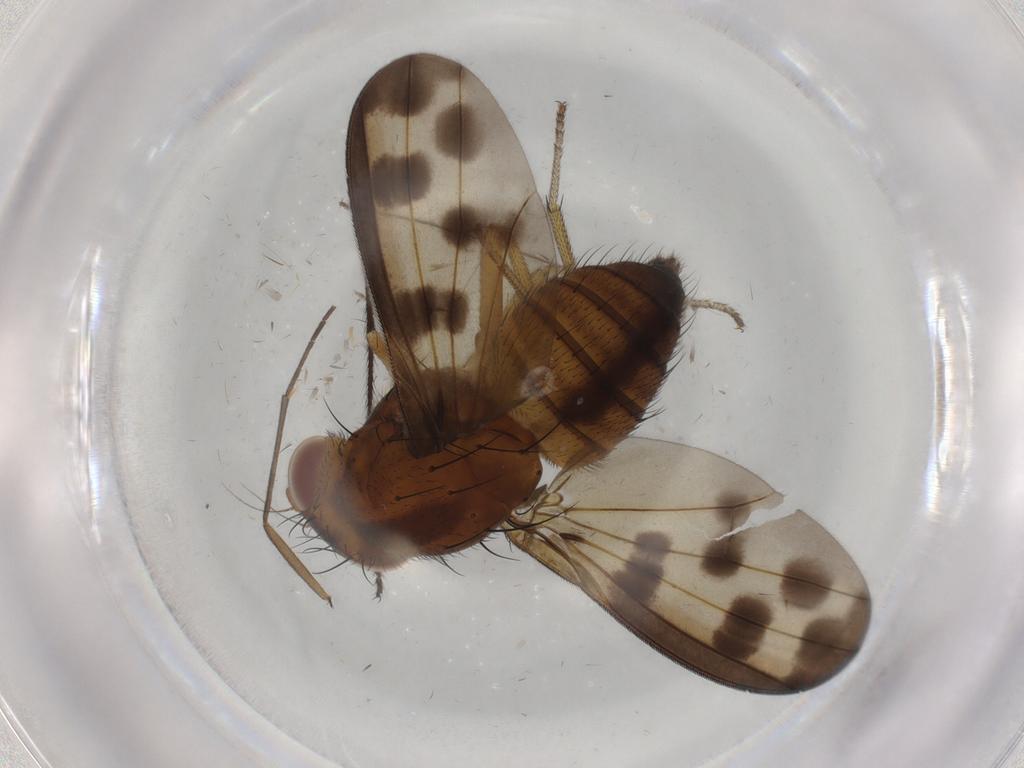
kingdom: Animalia
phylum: Arthropoda
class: Insecta
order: Diptera
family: Limoniidae
